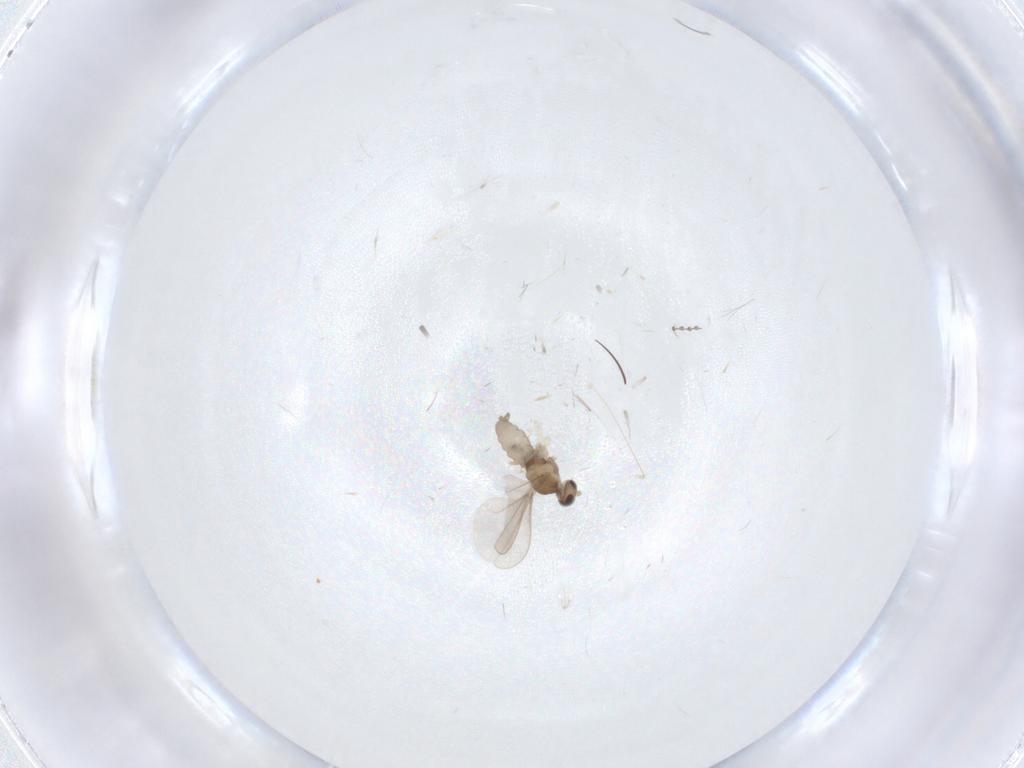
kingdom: Animalia
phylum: Arthropoda
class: Insecta
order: Diptera
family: Cecidomyiidae
